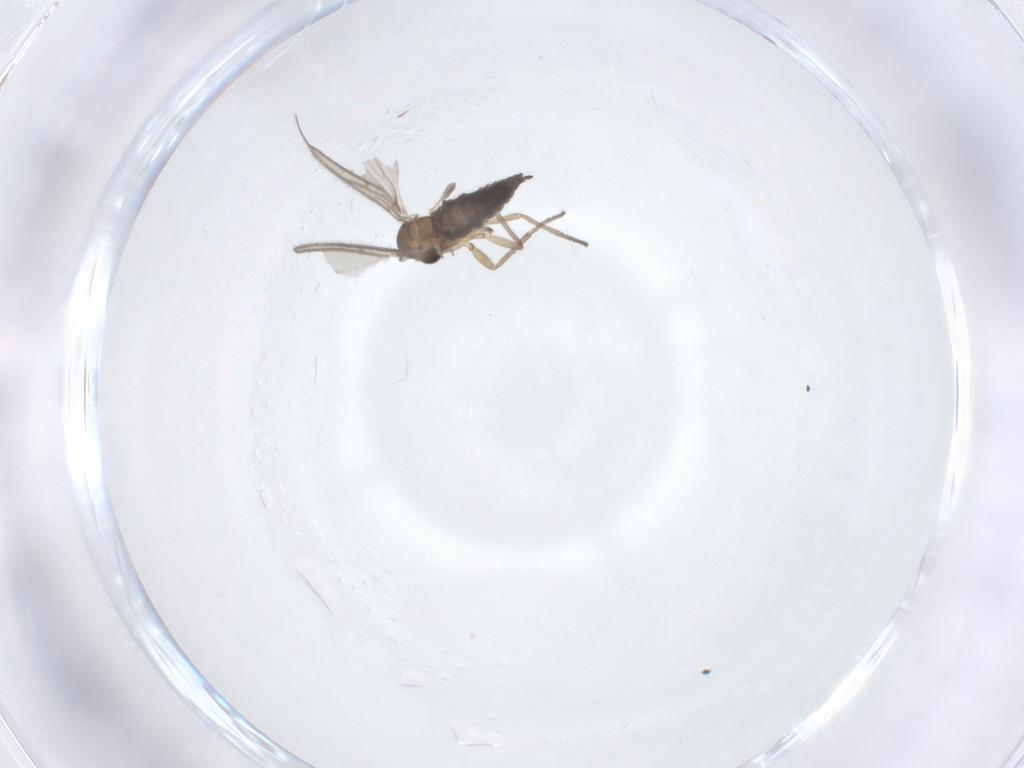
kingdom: Animalia
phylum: Arthropoda
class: Insecta
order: Diptera
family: Sciaridae
